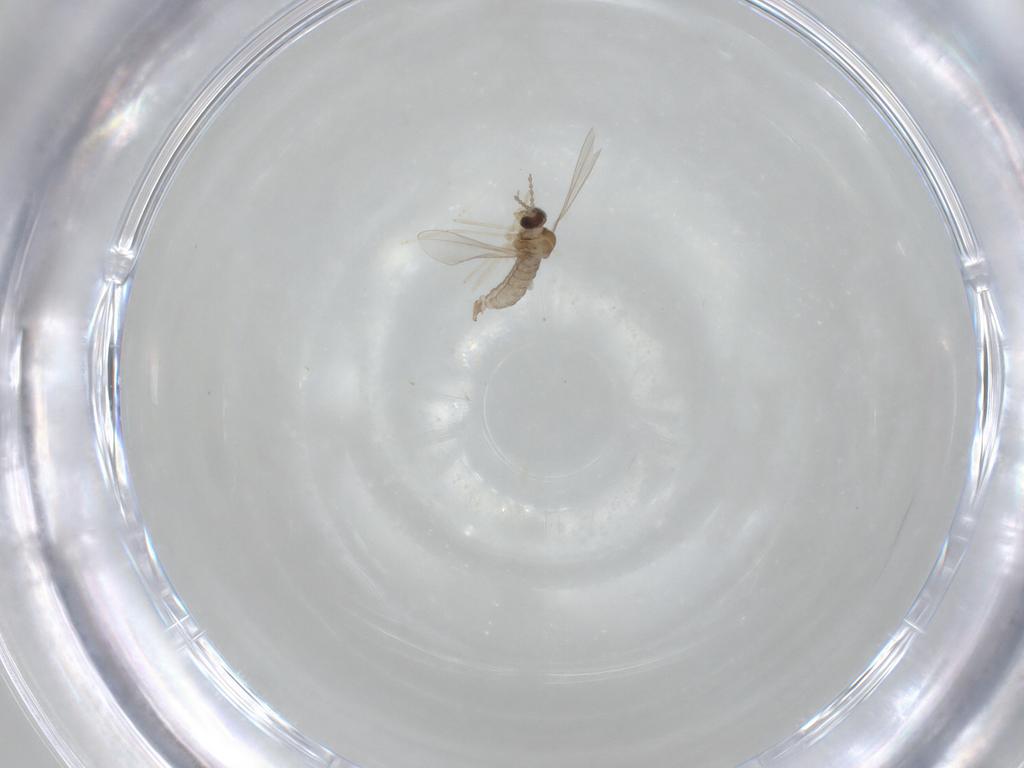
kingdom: Animalia
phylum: Arthropoda
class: Insecta
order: Diptera
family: Cecidomyiidae
